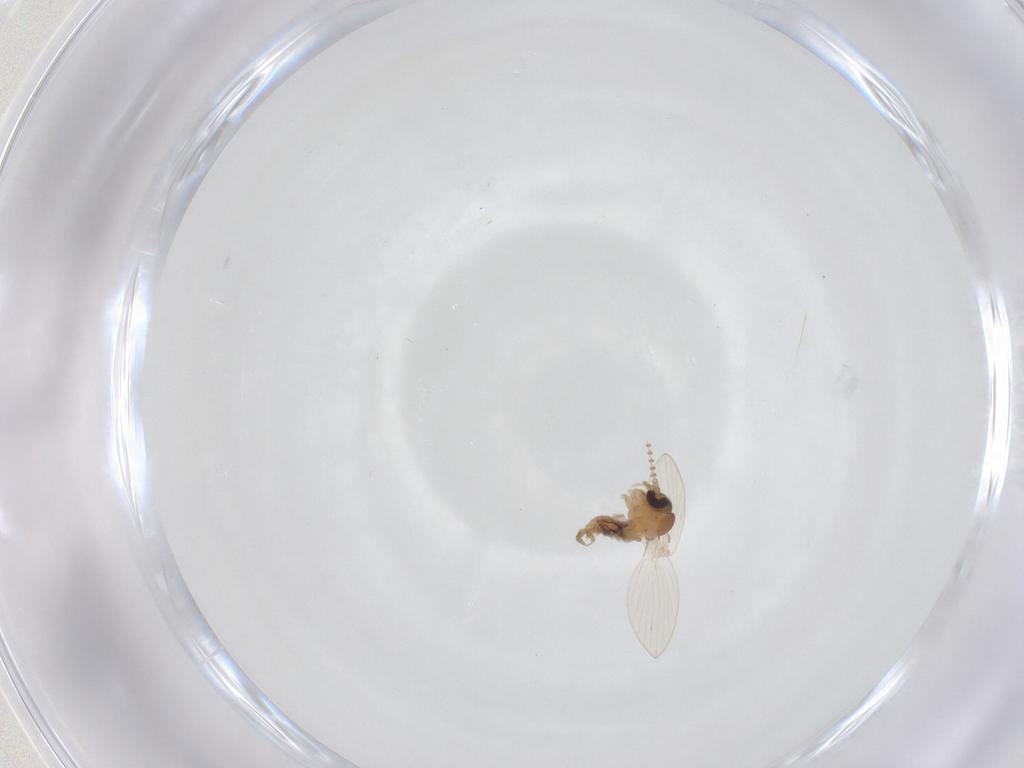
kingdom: Animalia
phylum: Arthropoda
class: Insecta
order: Diptera
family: Psychodidae
